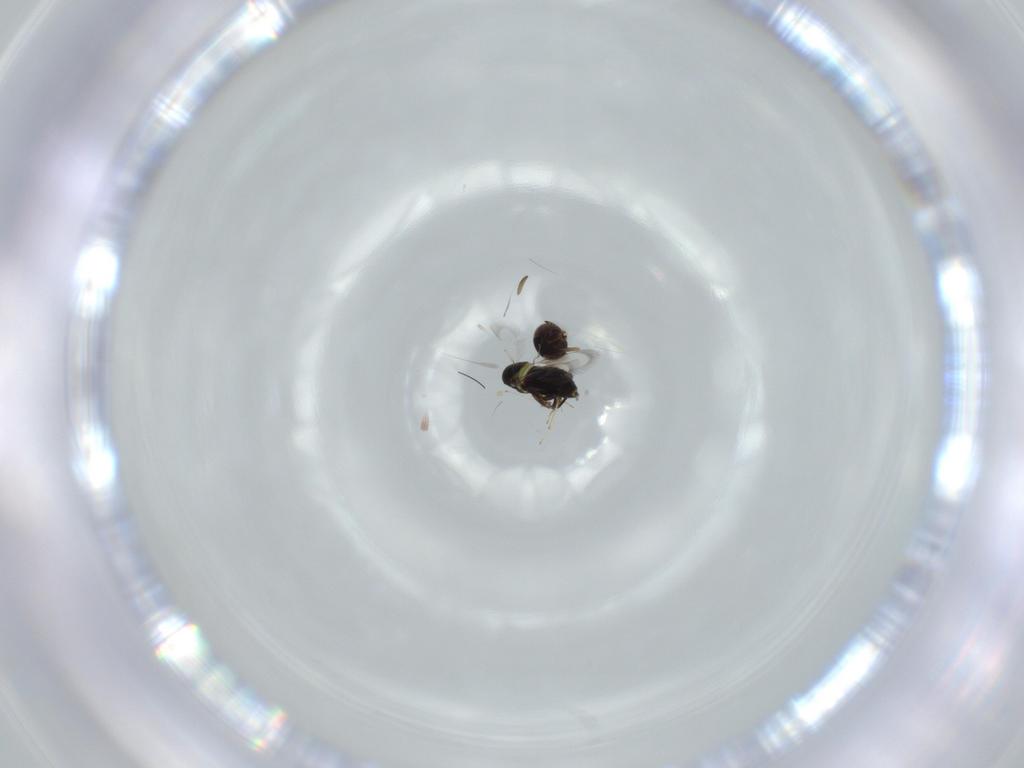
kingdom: Animalia
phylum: Arthropoda
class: Insecta
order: Hymenoptera
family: Signiphoridae
